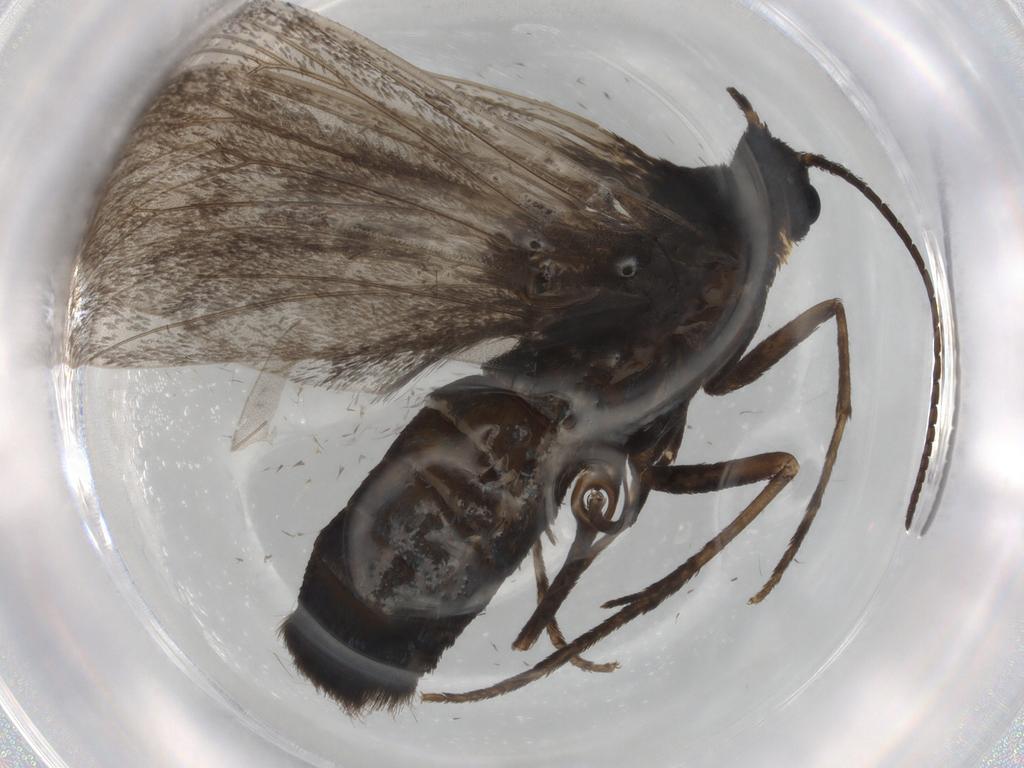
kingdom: Animalia
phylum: Arthropoda
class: Insecta
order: Lepidoptera
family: Noctuidae
